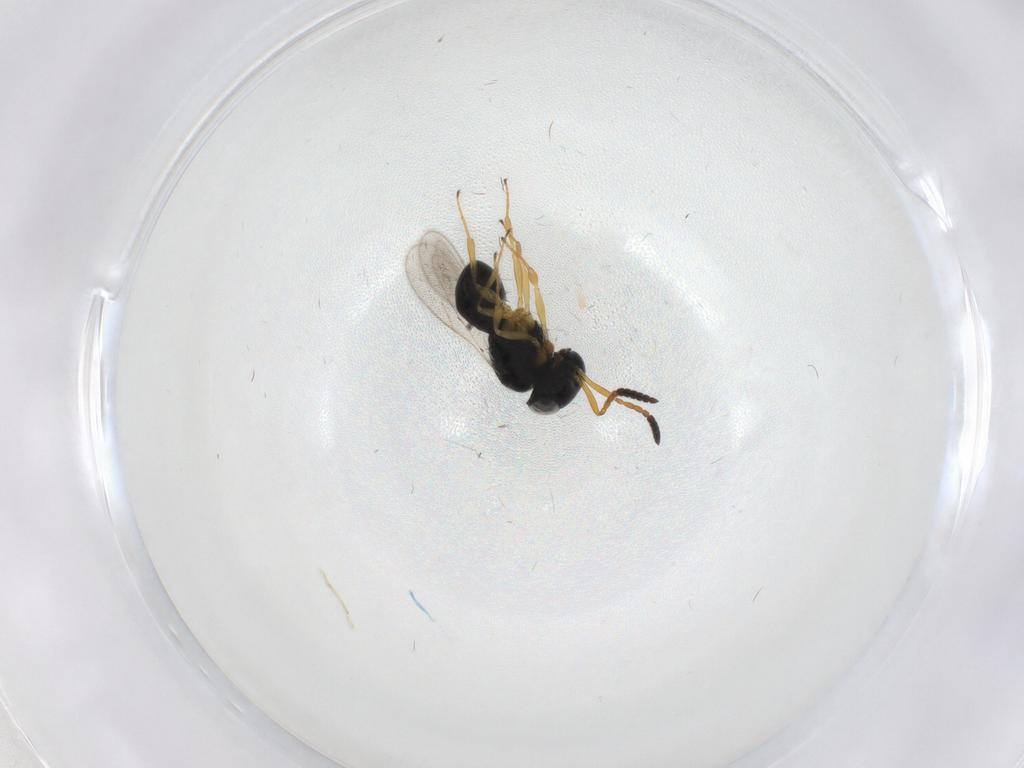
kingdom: Animalia
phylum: Arthropoda
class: Insecta
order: Hymenoptera
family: Scelionidae
